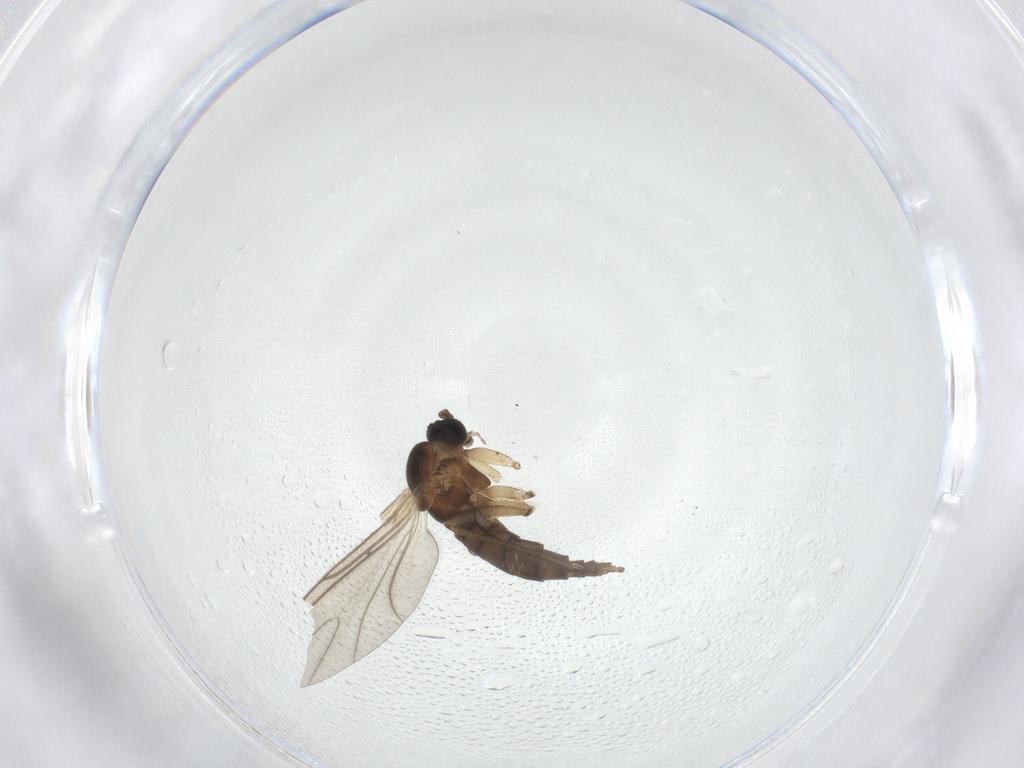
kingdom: Animalia
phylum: Arthropoda
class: Insecta
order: Diptera
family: Sciaridae
